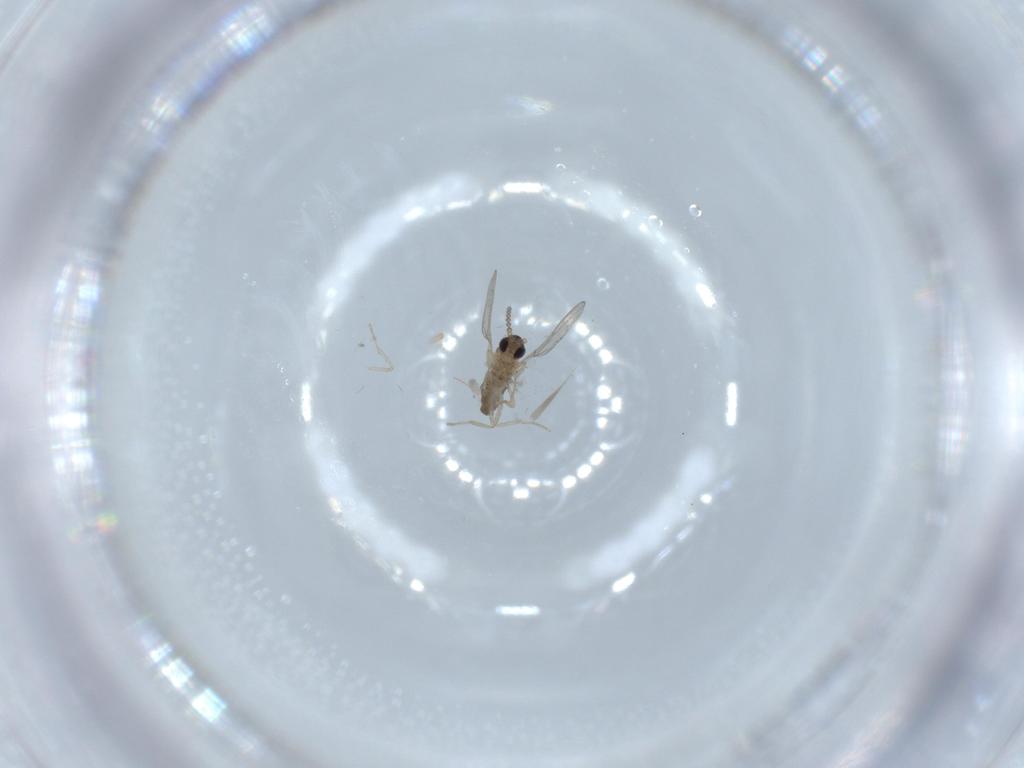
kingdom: Animalia
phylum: Arthropoda
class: Insecta
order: Diptera
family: Cecidomyiidae
